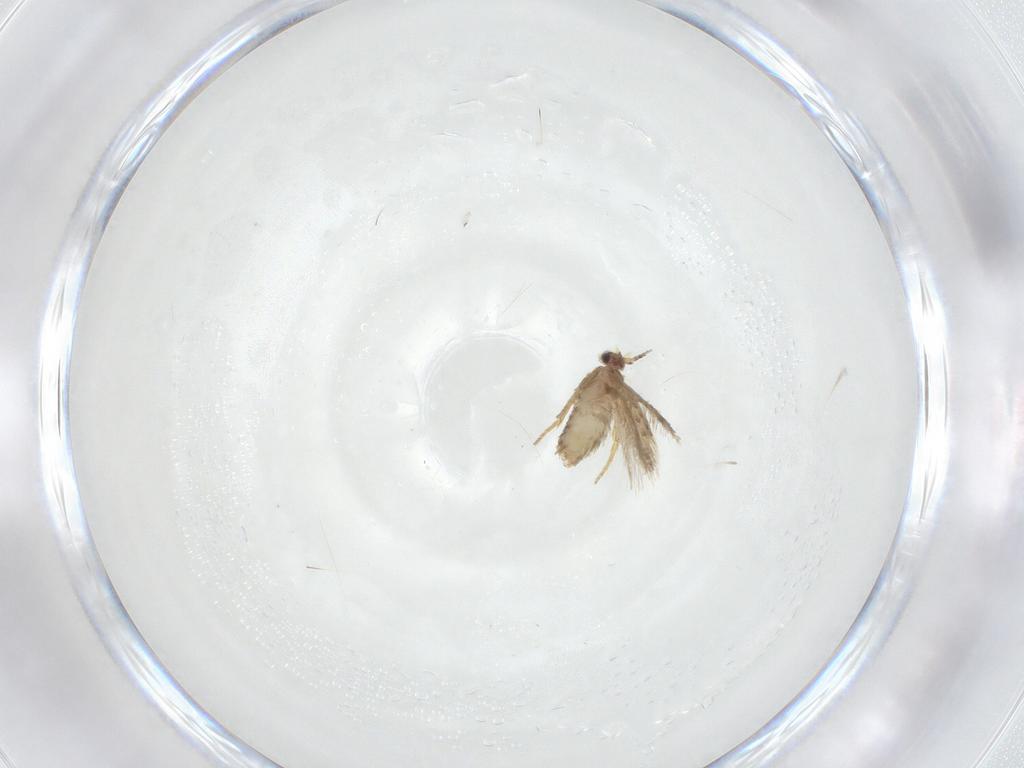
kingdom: Animalia
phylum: Arthropoda
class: Insecta
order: Lepidoptera
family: Nepticulidae
